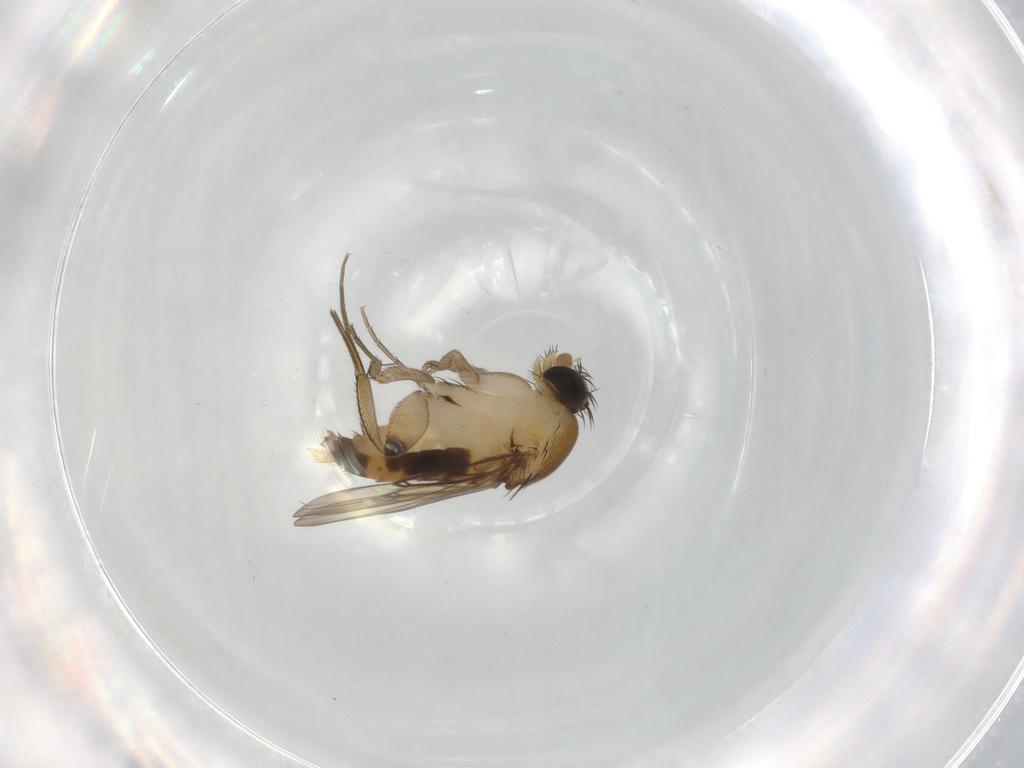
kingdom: Animalia
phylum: Arthropoda
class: Insecta
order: Diptera
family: Phoridae
